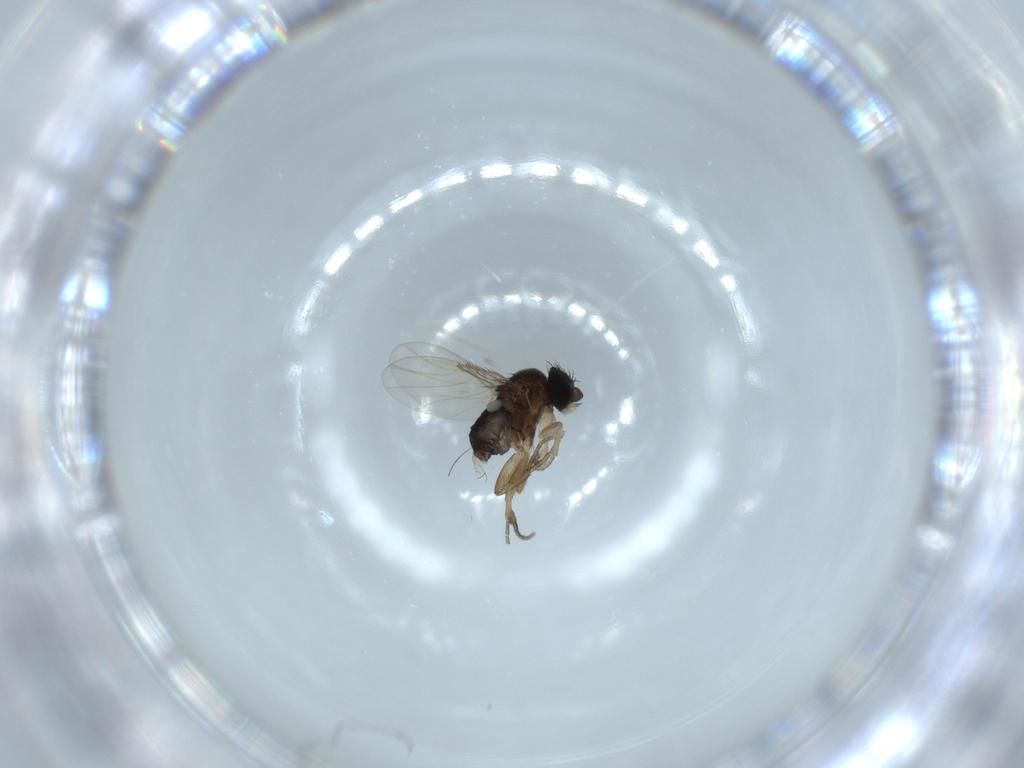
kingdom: Animalia
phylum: Arthropoda
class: Insecta
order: Diptera
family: Phoridae
